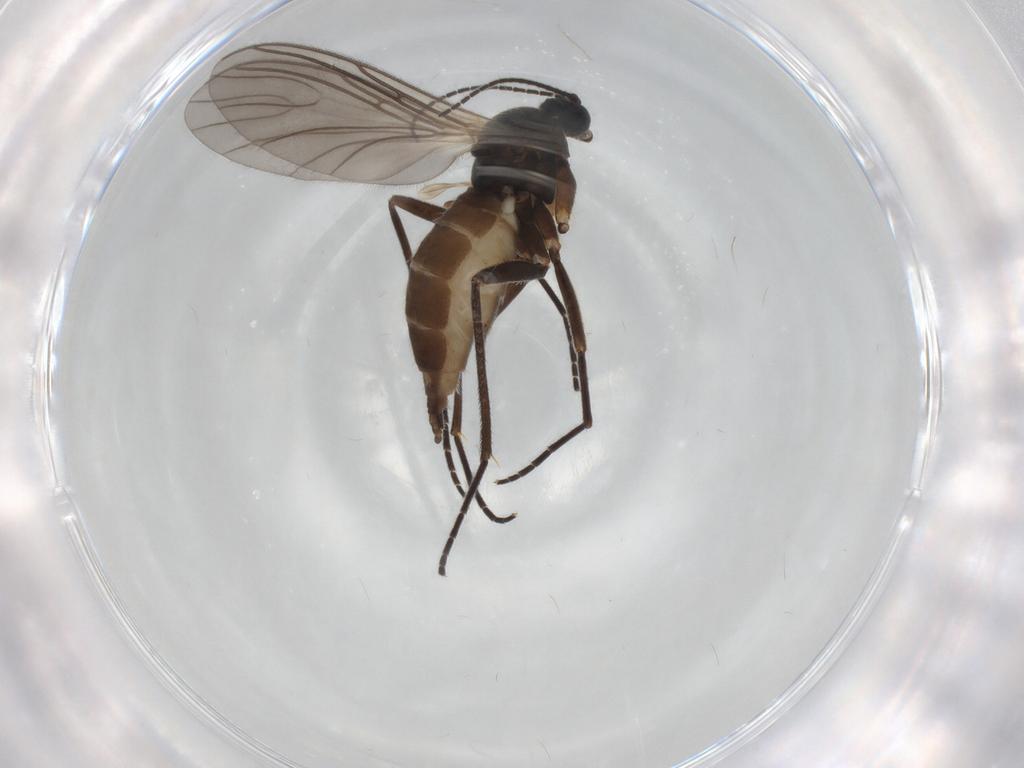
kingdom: Animalia
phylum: Arthropoda
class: Insecta
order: Diptera
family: Sciaridae
